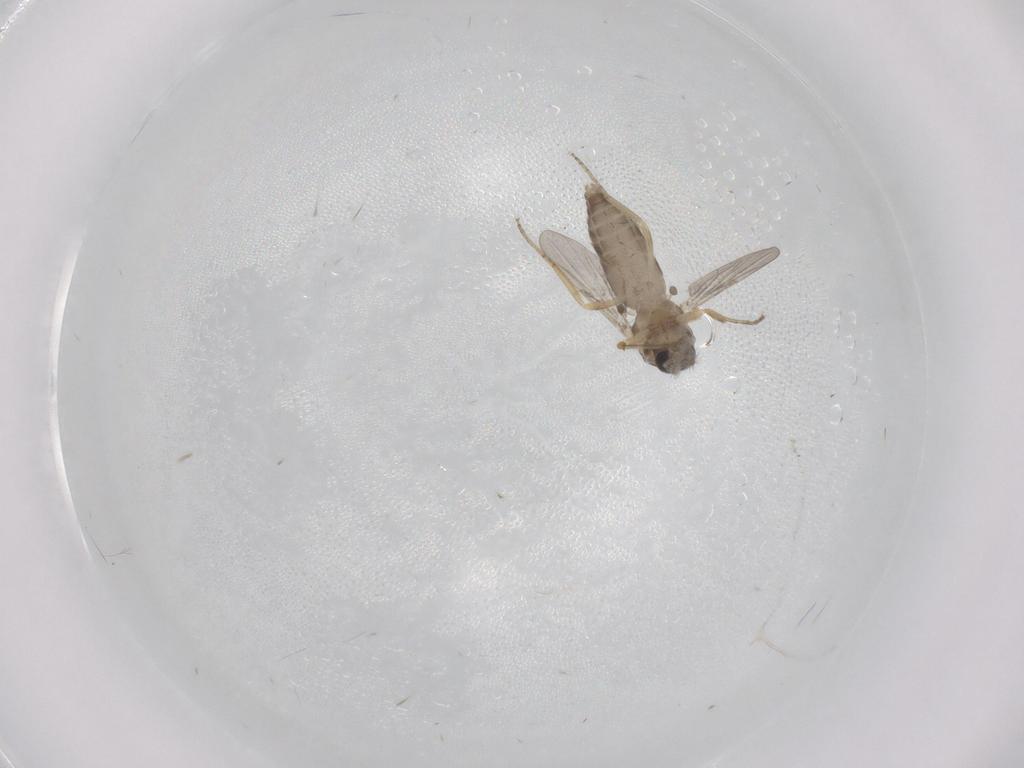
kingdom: Animalia
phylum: Arthropoda
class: Insecta
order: Diptera
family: Ceratopogonidae
